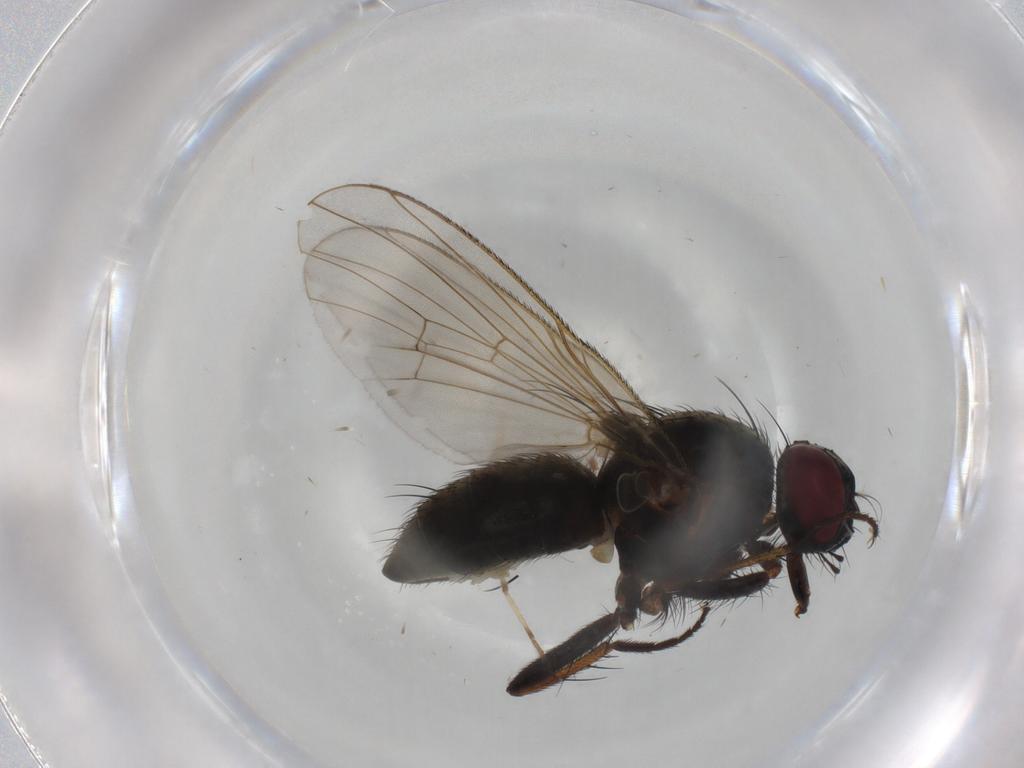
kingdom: Animalia
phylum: Arthropoda
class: Insecta
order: Diptera
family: Muscidae
